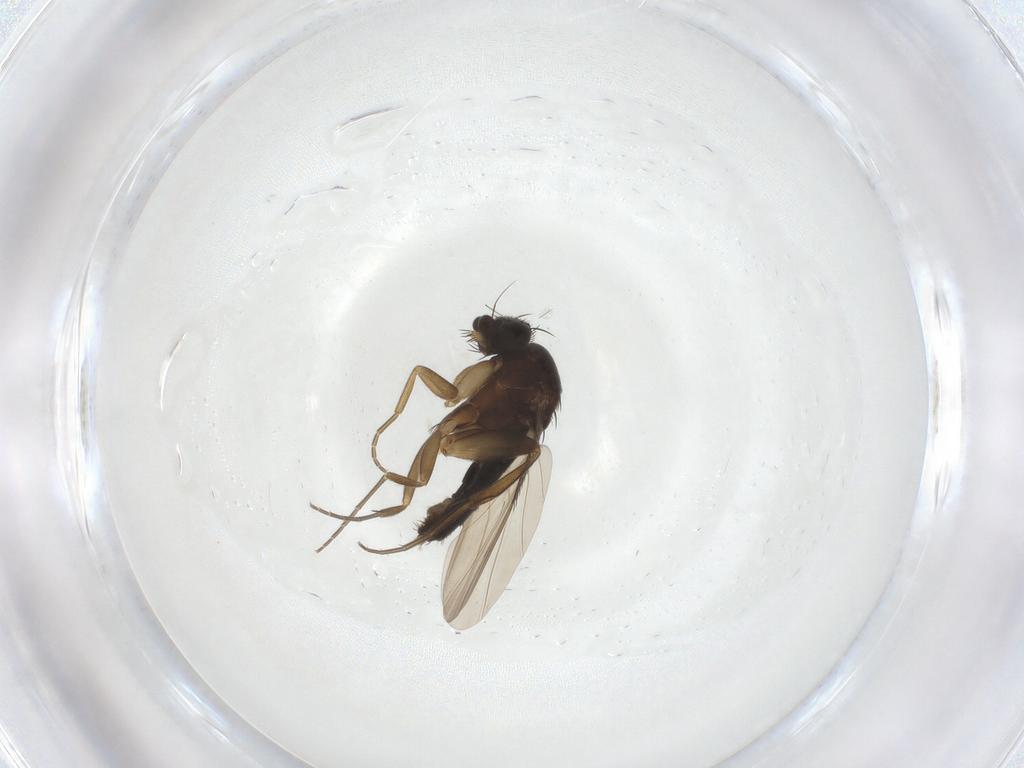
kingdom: Animalia
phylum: Arthropoda
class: Insecta
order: Diptera
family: Phoridae
